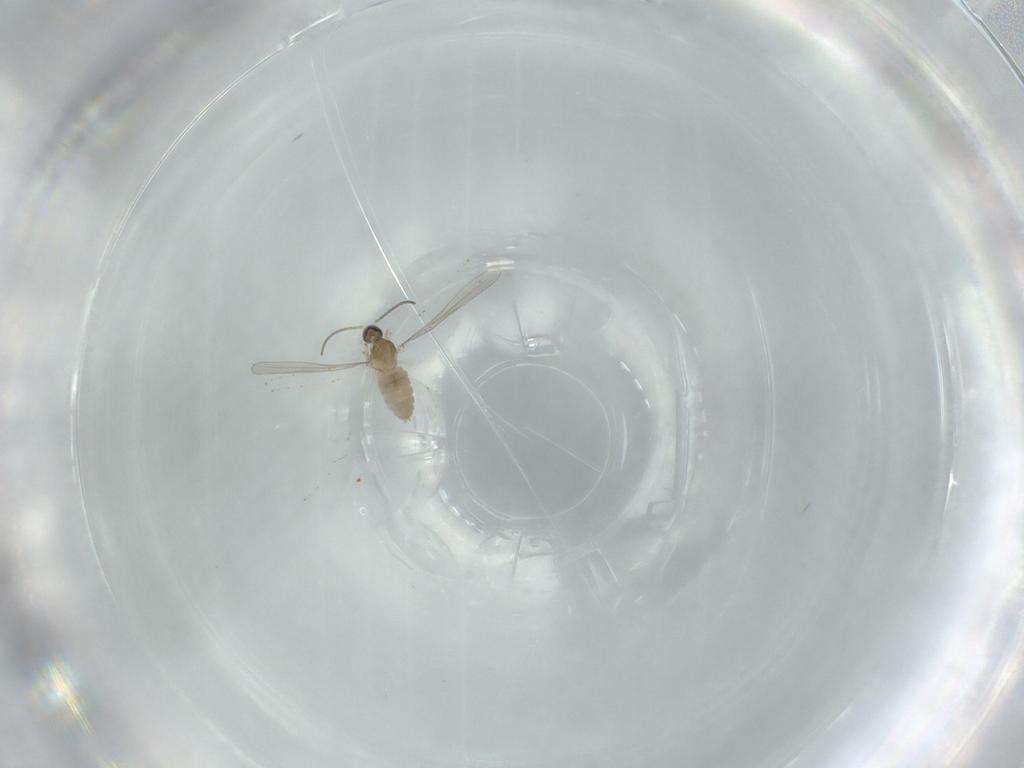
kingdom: Animalia
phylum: Arthropoda
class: Insecta
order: Diptera
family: Cecidomyiidae
